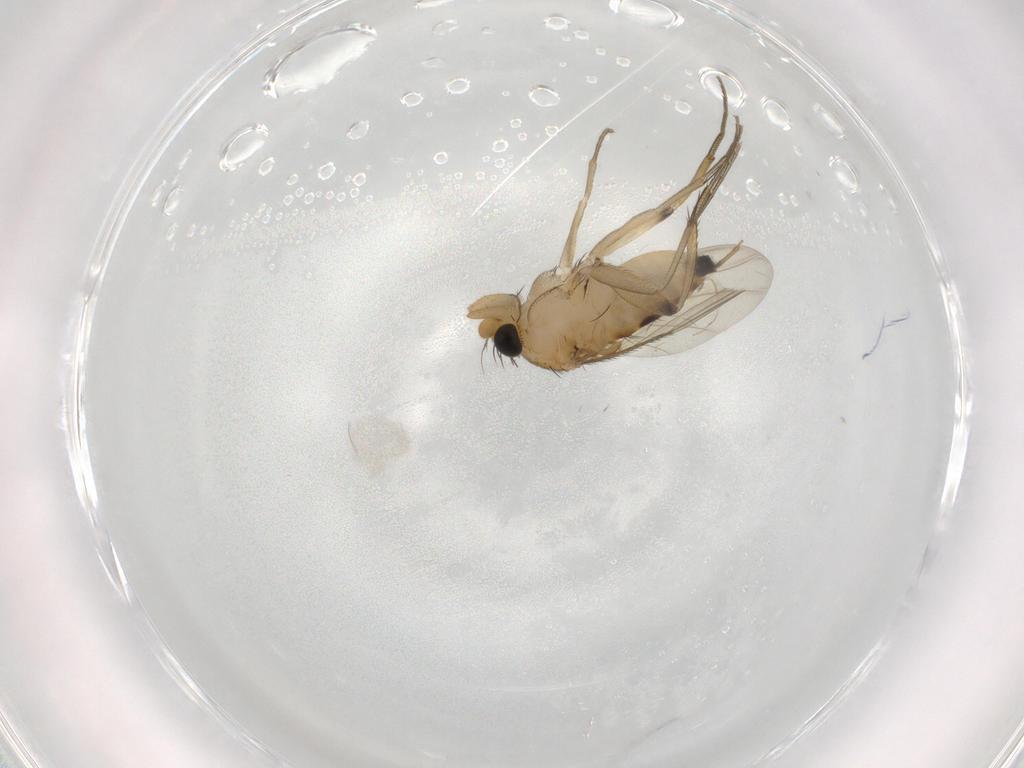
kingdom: Animalia
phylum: Arthropoda
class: Insecta
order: Diptera
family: Phoridae
